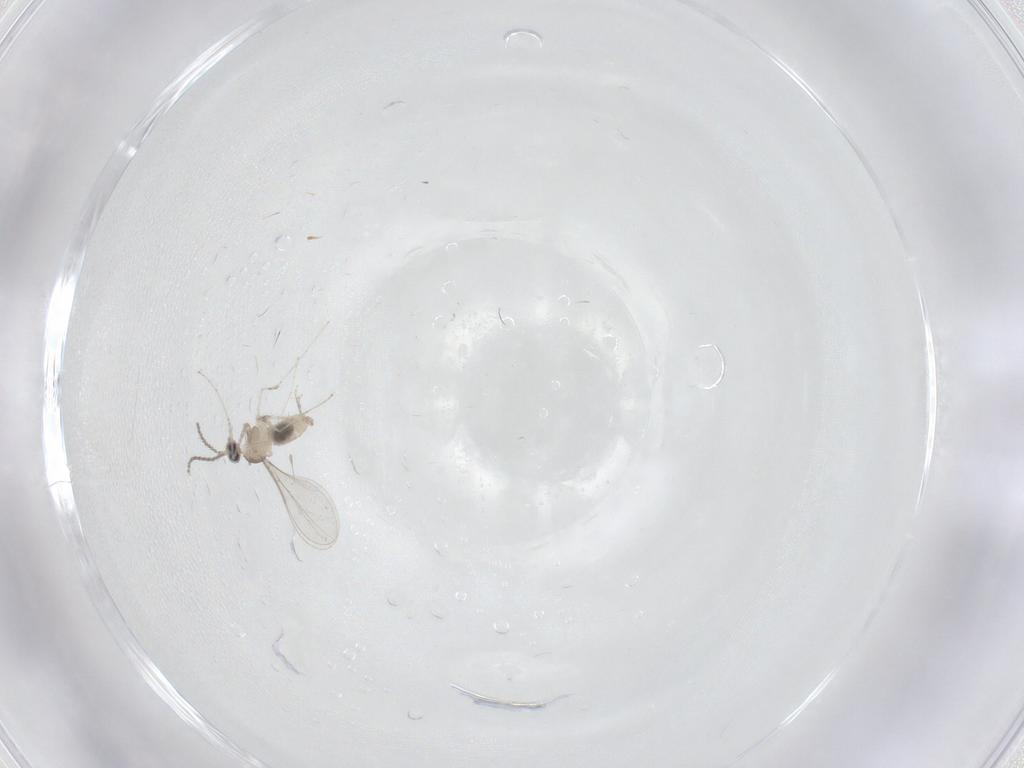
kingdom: Animalia
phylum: Arthropoda
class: Insecta
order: Diptera
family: Cecidomyiidae
